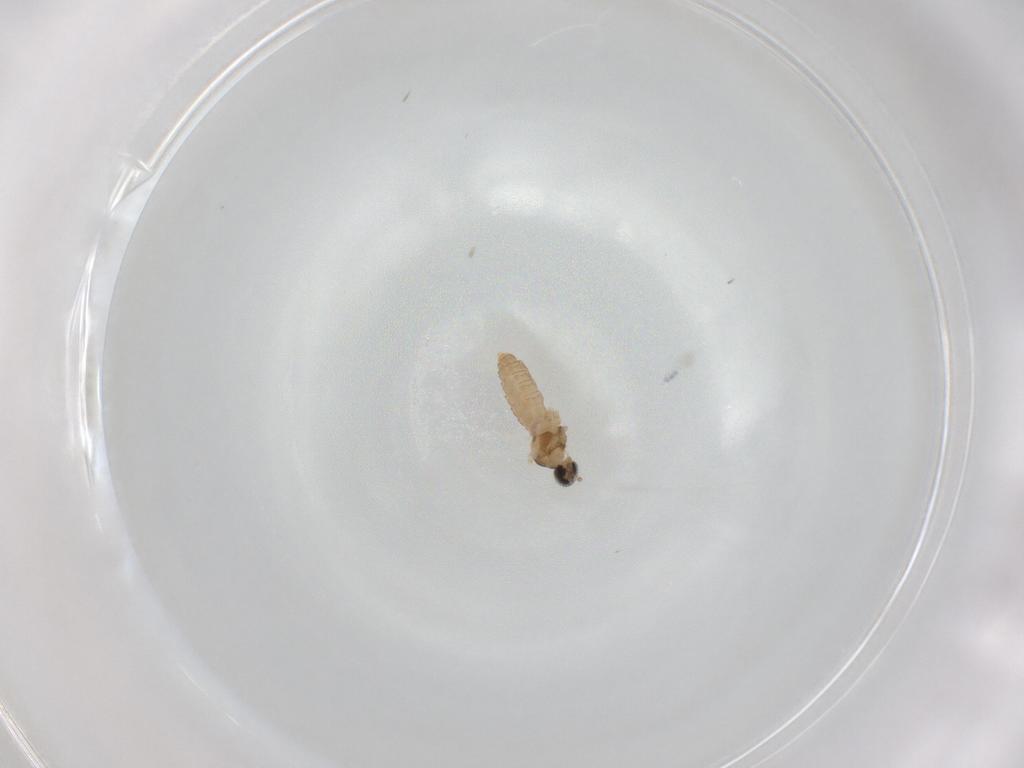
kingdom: Animalia
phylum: Arthropoda
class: Insecta
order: Diptera
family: Cecidomyiidae
